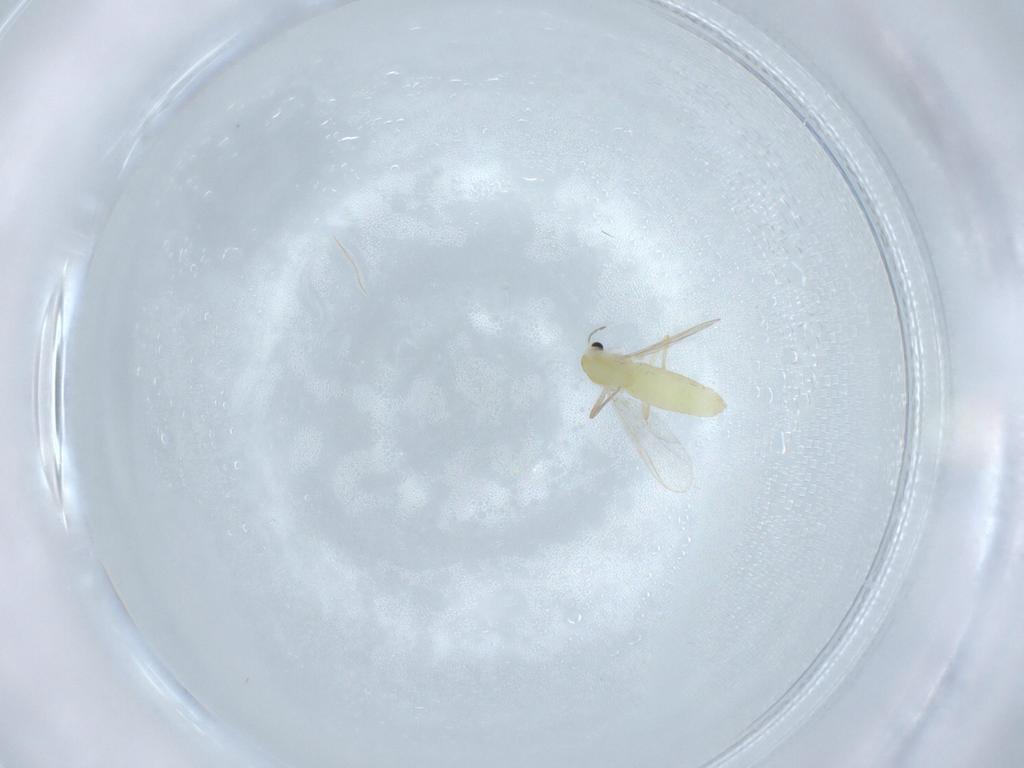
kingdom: Animalia
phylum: Arthropoda
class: Insecta
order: Diptera
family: Chironomidae
